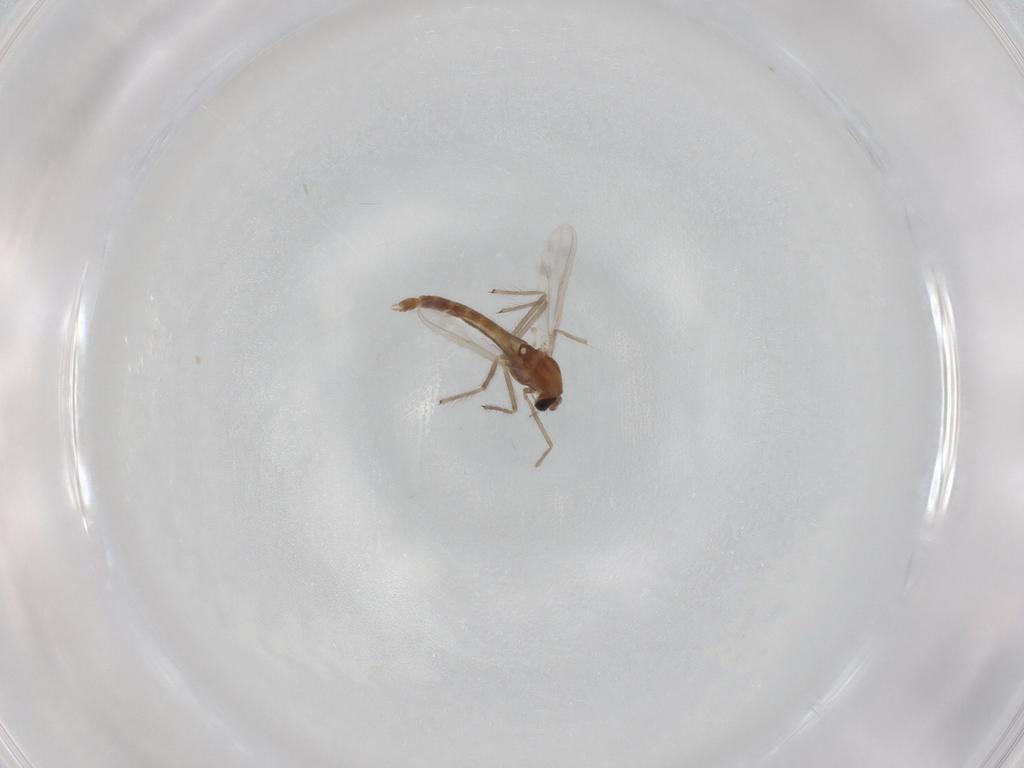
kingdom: Animalia
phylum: Arthropoda
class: Insecta
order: Diptera
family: Chironomidae
